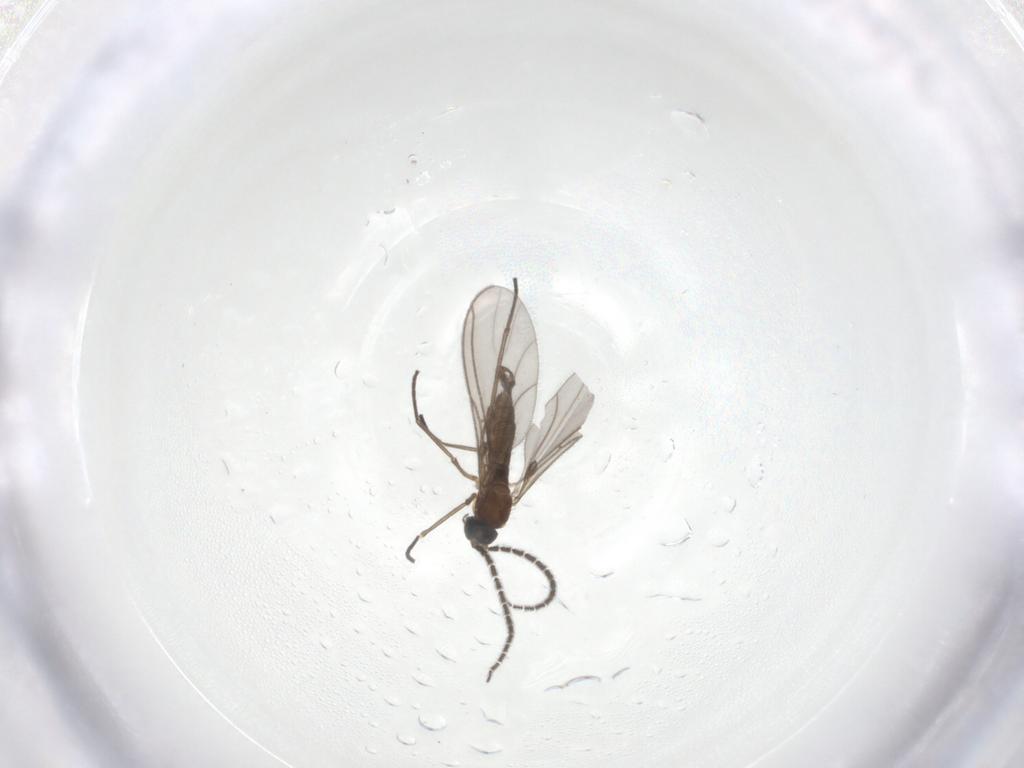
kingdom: Animalia
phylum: Arthropoda
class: Insecta
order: Diptera
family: Sciaridae
